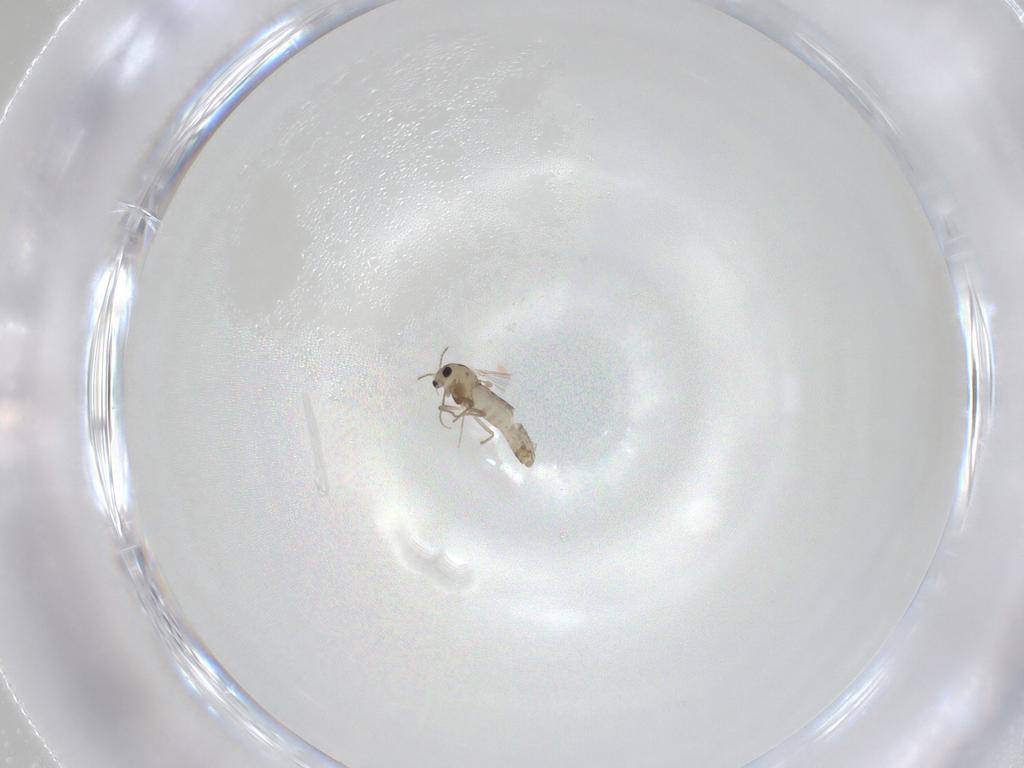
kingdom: Animalia
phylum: Arthropoda
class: Insecta
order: Diptera
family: Chironomidae
